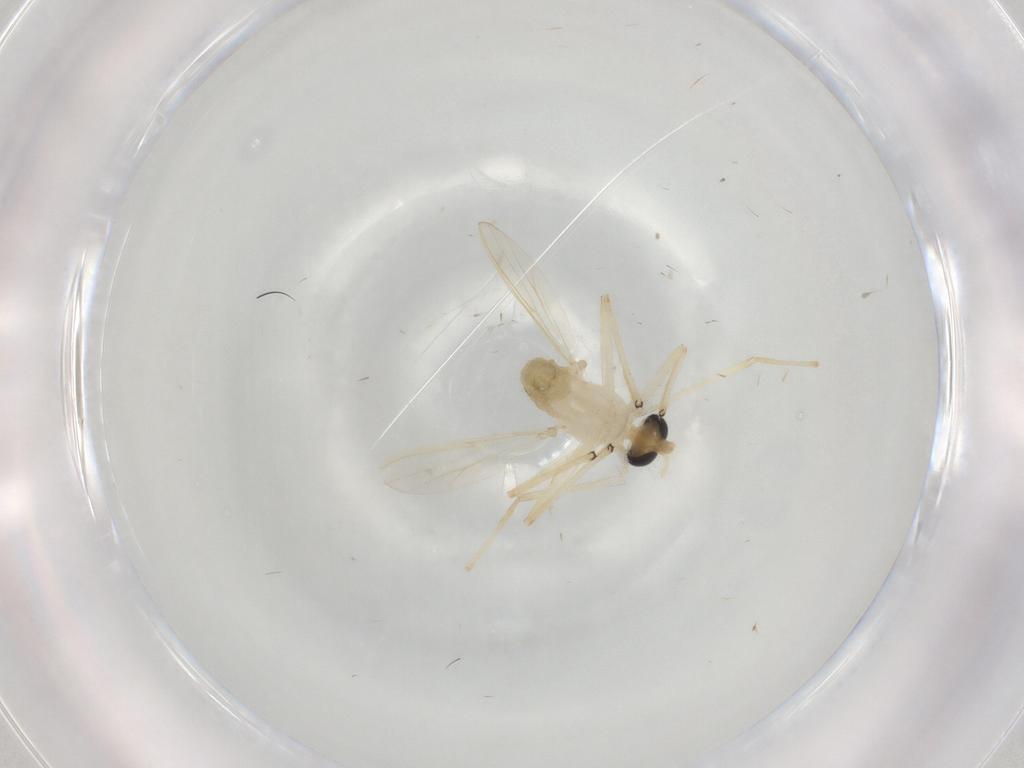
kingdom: Animalia
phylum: Arthropoda
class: Insecta
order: Diptera
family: Chironomidae
